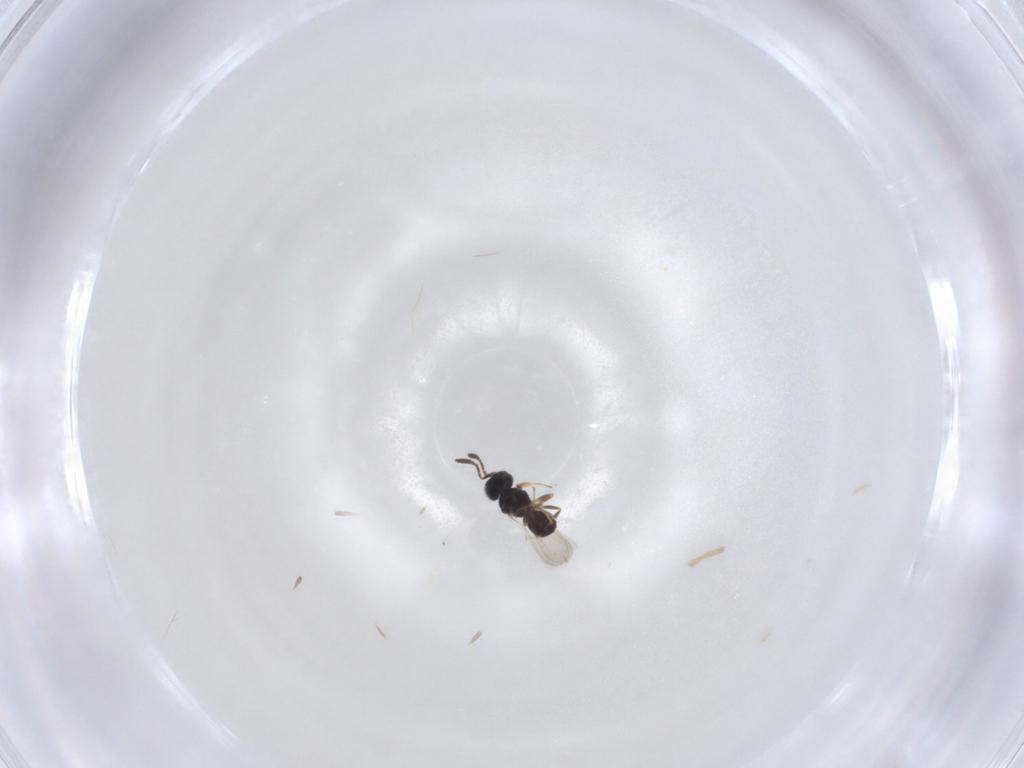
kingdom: Animalia
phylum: Arthropoda
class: Insecta
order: Hymenoptera
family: Scelionidae
